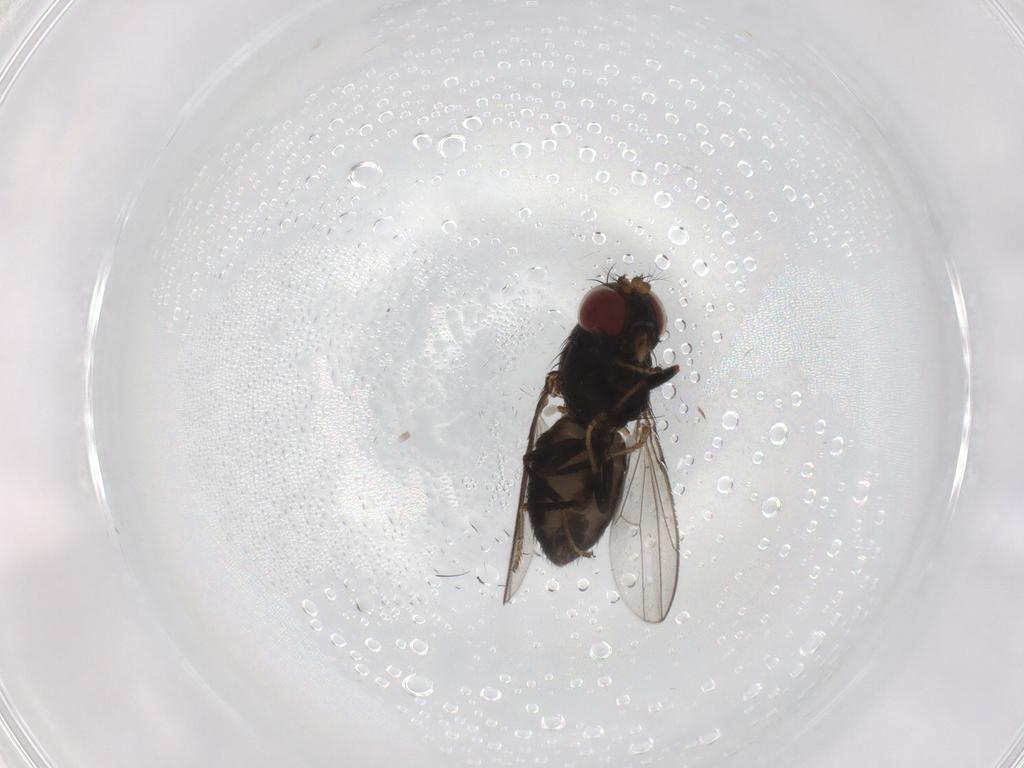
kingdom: Animalia
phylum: Arthropoda
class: Insecta
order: Diptera
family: Ephydridae
